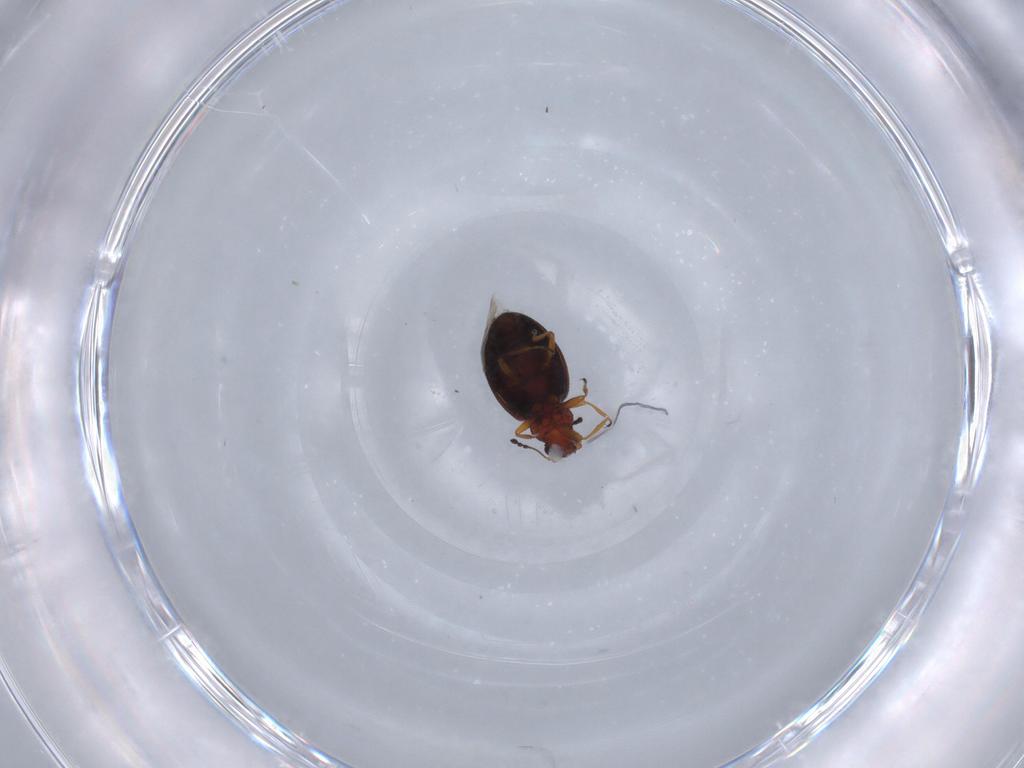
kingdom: Animalia
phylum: Arthropoda
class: Insecta
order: Coleoptera
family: Latridiidae
